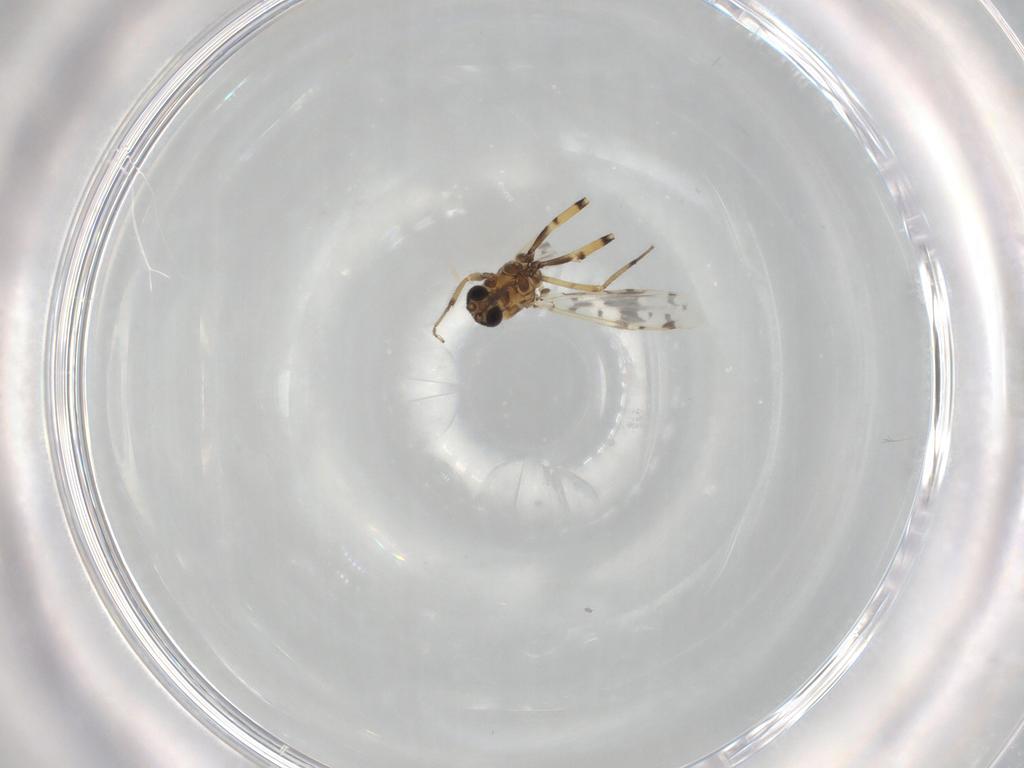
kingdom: Animalia
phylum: Arthropoda
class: Insecta
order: Diptera
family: Ceratopogonidae
